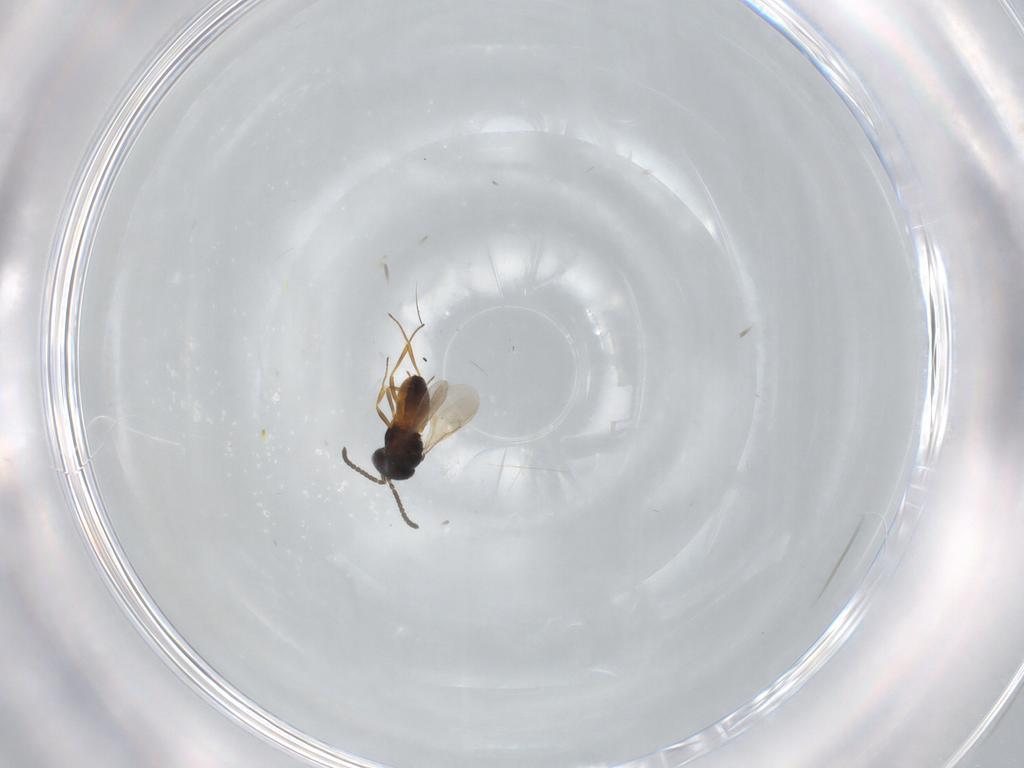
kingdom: Animalia
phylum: Arthropoda
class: Insecta
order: Hymenoptera
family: Scelionidae
